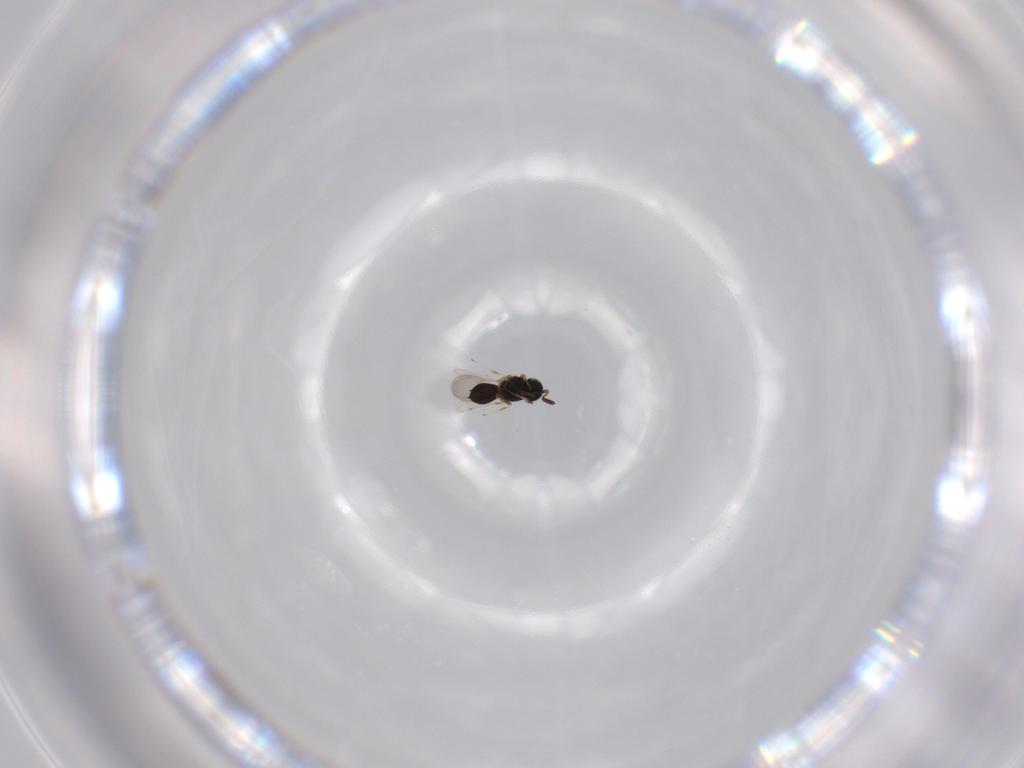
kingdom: Animalia
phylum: Arthropoda
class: Insecta
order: Hymenoptera
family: Scelionidae
